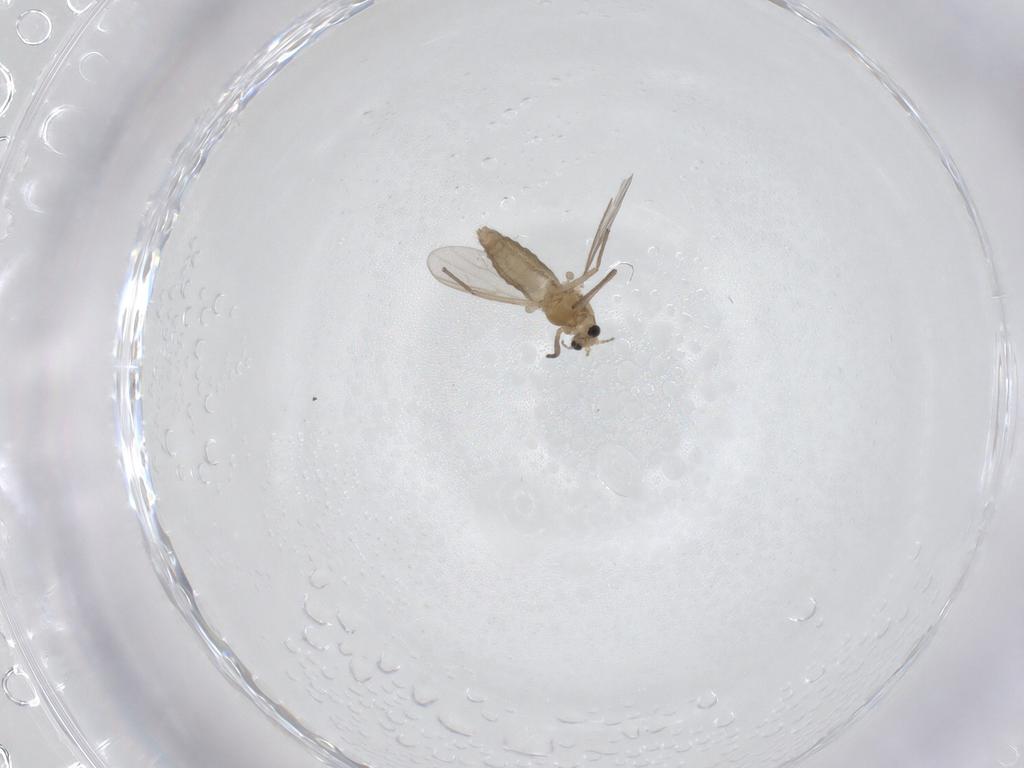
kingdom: Animalia
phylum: Arthropoda
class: Insecta
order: Diptera
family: Chironomidae
